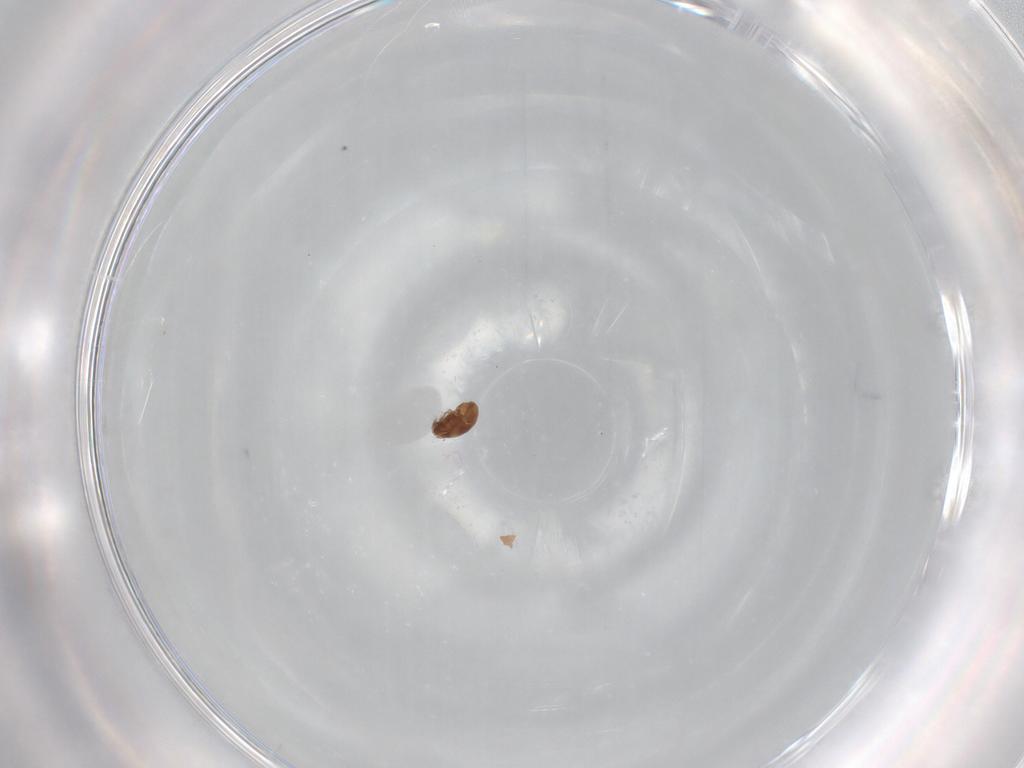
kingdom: Animalia
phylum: Arthropoda
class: Arachnida
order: Sarcoptiformes
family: Tegoribatidae
